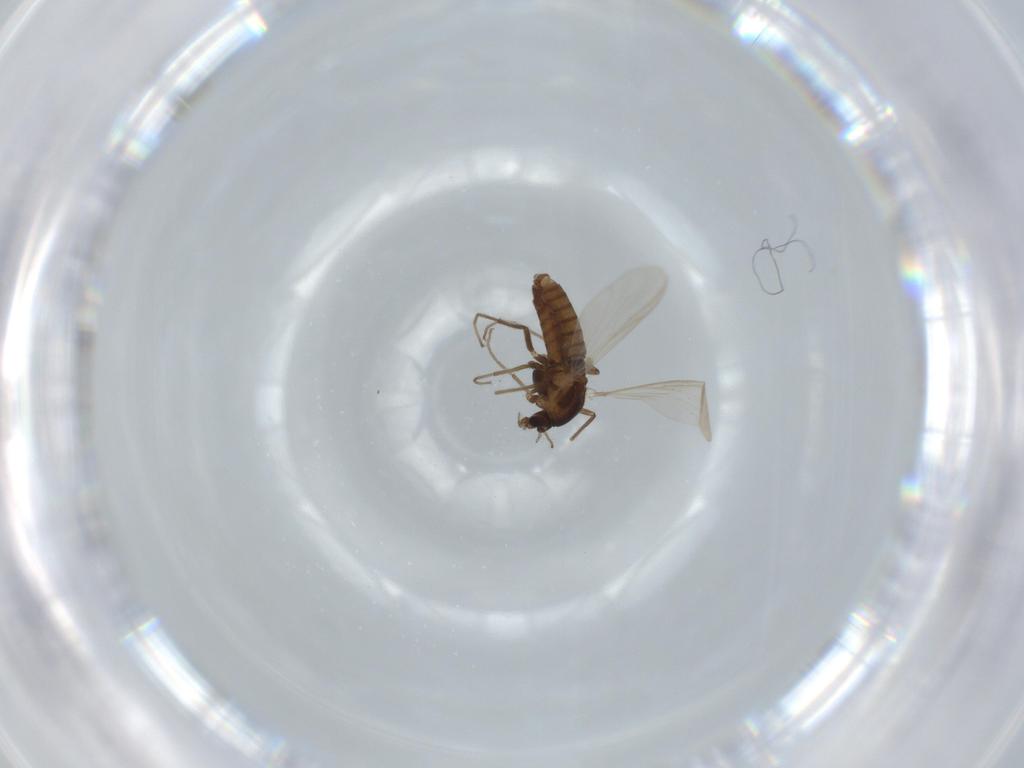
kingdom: Animalia
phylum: Arthropoda
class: Insecta
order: Diptera
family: Chironomidae
